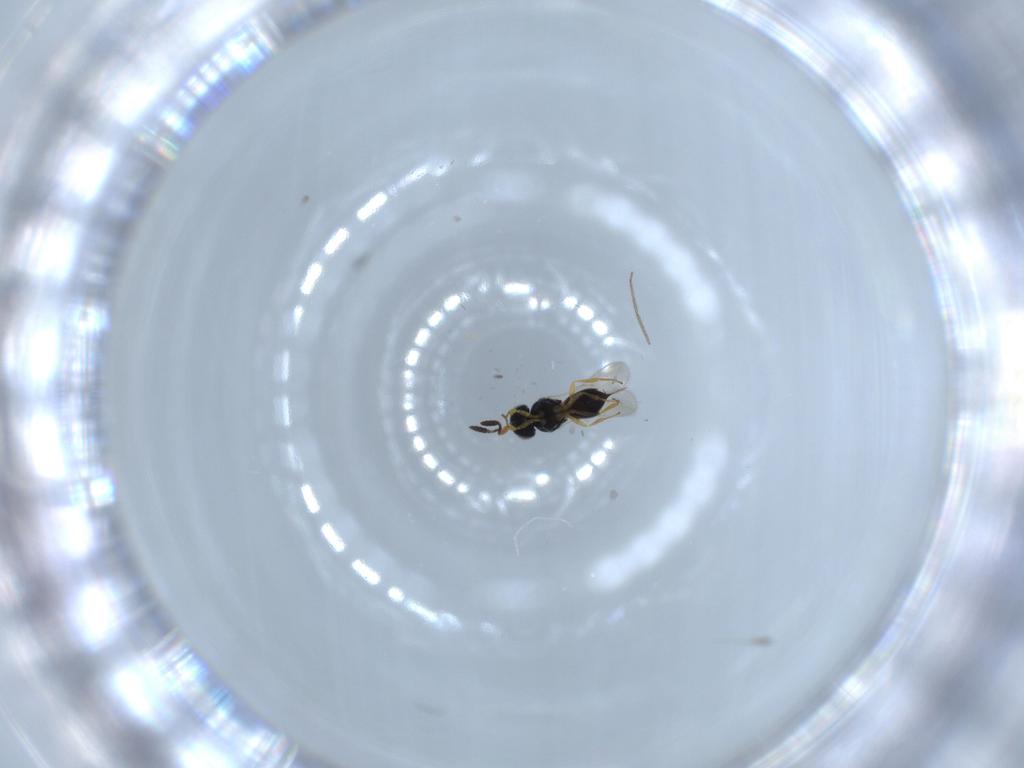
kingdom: Animalia
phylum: Arthropoda
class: Insecta
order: Hymenoptera
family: Scelionidae
